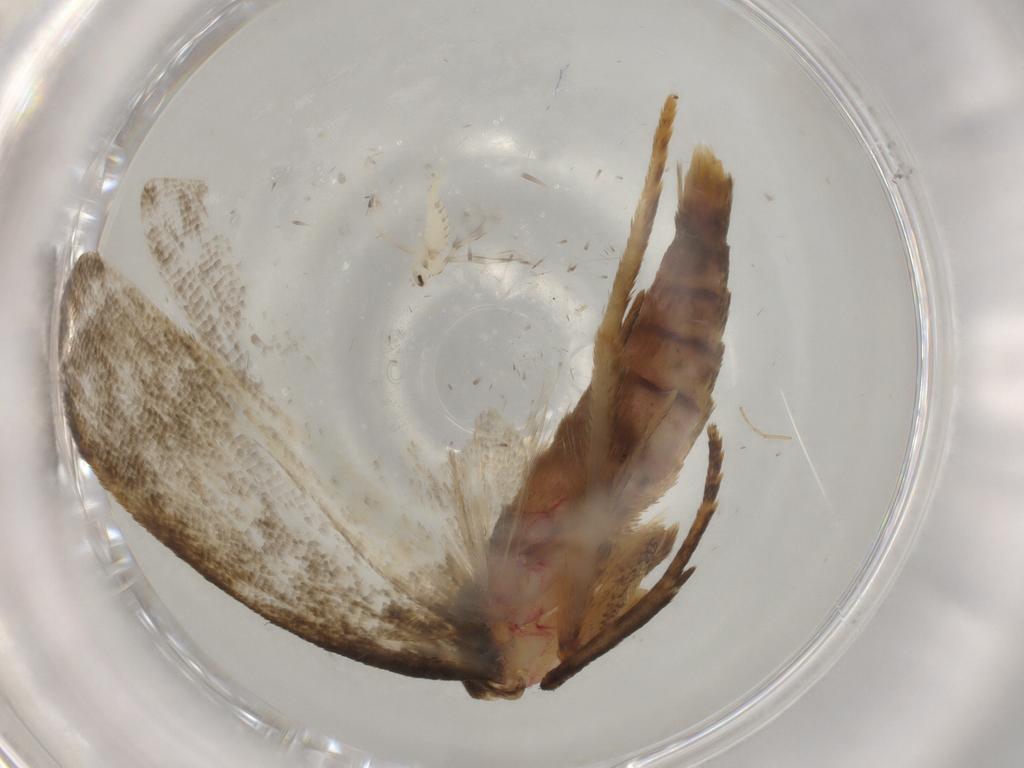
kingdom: Animalia
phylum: Arthropoda
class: Insecta
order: Lepidoptera
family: Autostichidae
